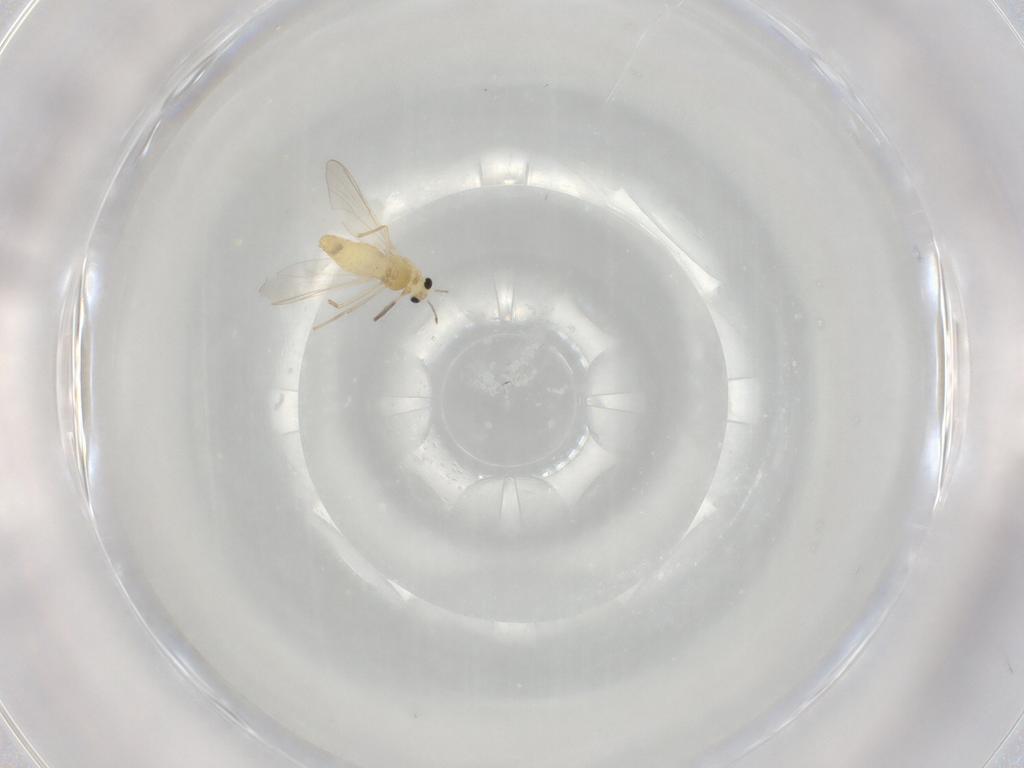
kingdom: Animalia
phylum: Arthropoda
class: Insecta
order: Diptera
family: Chironomidae
